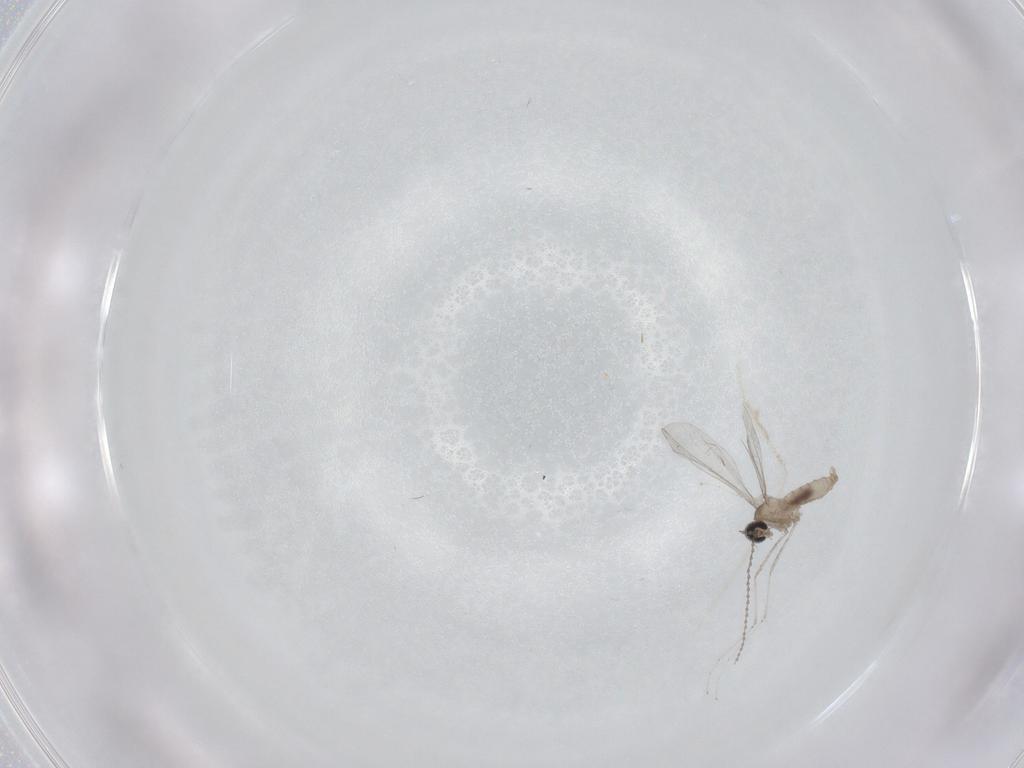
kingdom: Animalia
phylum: Arthropoda
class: Insecta
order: Diptera
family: Cecidomyiidae
